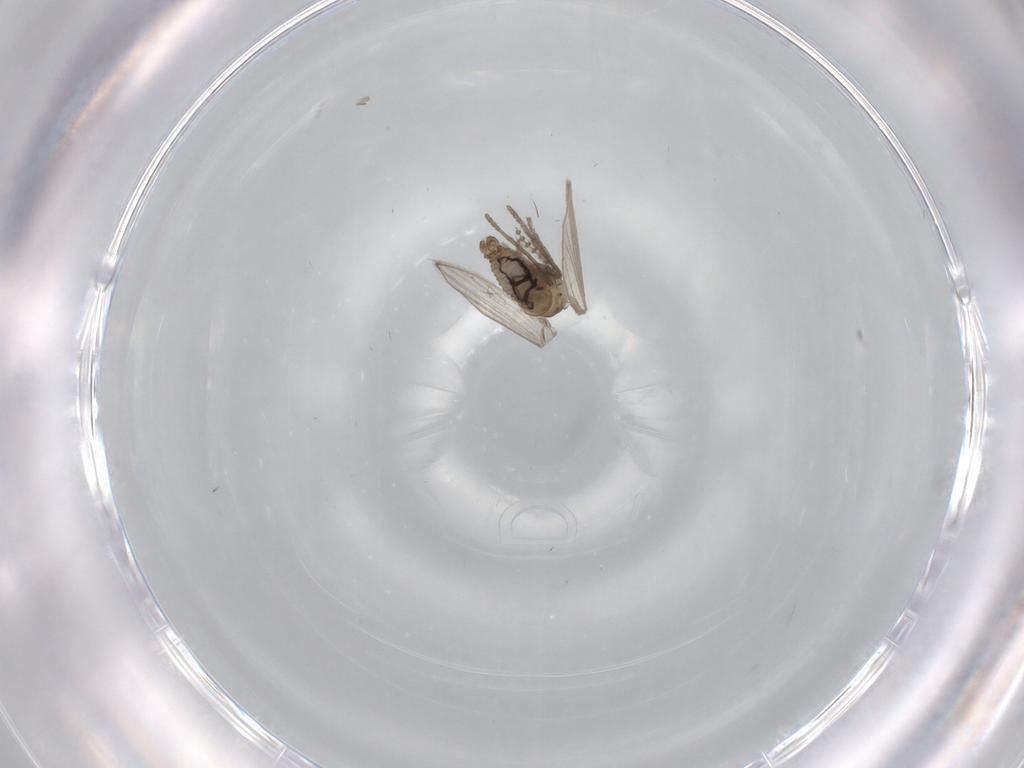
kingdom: Animalia
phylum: Arthropoda
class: Insecta
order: Diptera
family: Psychodidae
